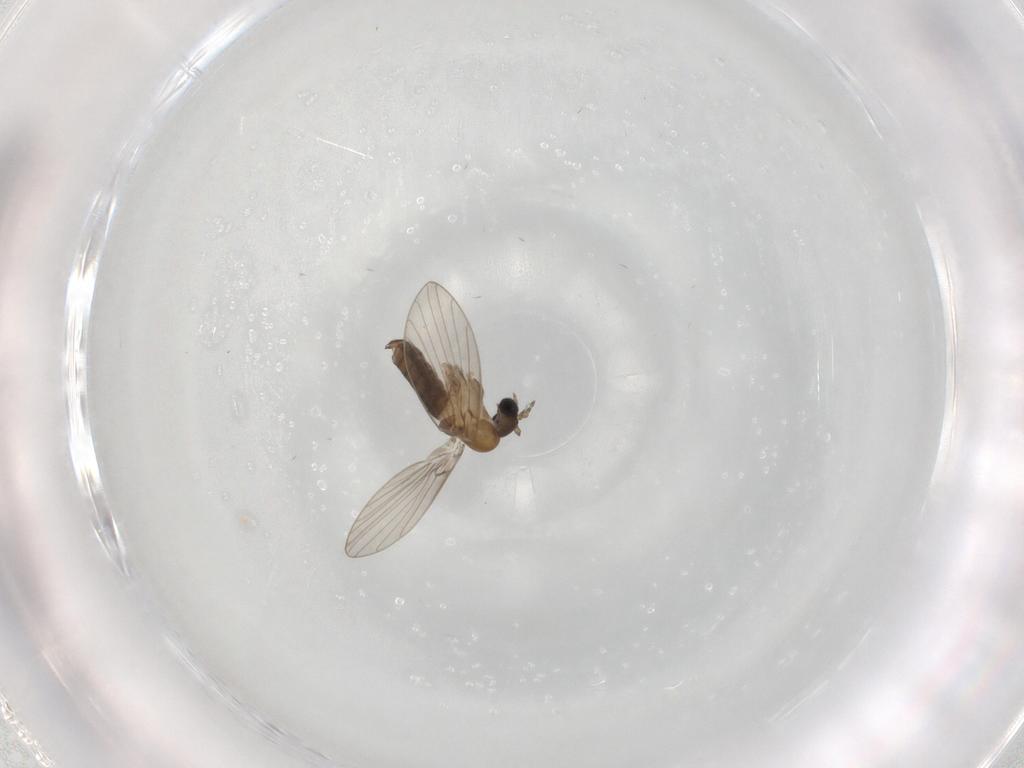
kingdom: Animalia
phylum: Arthropoda
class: Insecta
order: Diptera
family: Psychodidae
